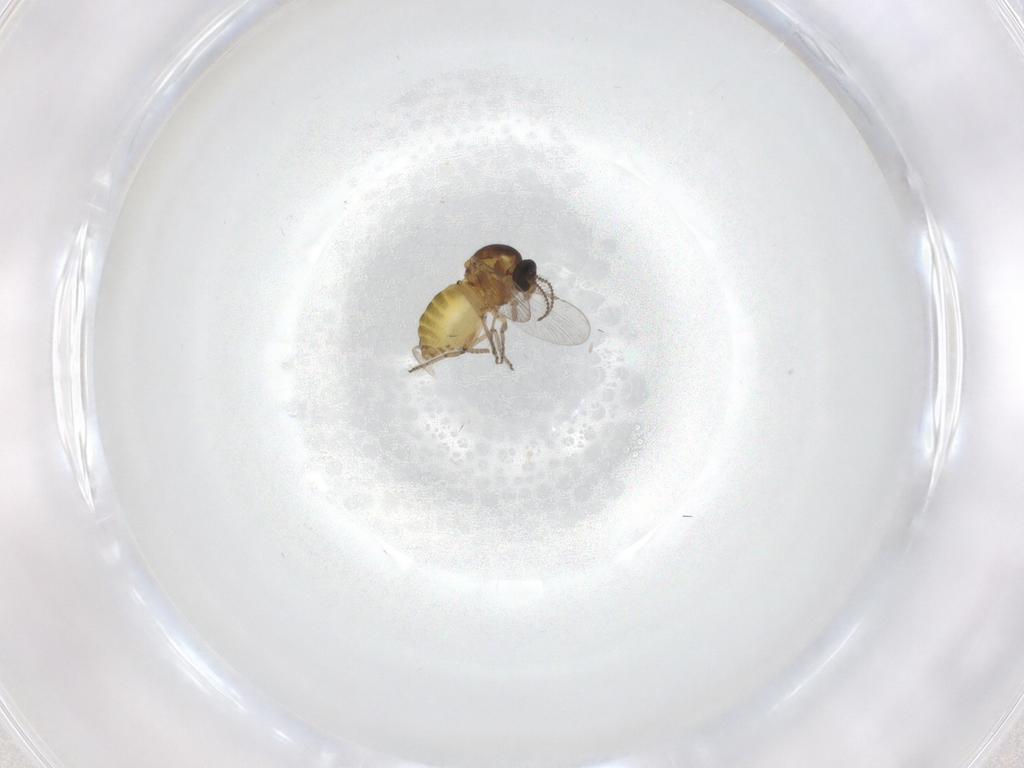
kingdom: Animalia
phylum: Arthropoda
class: Insecta
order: Diptera
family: Ceratopogonidae
